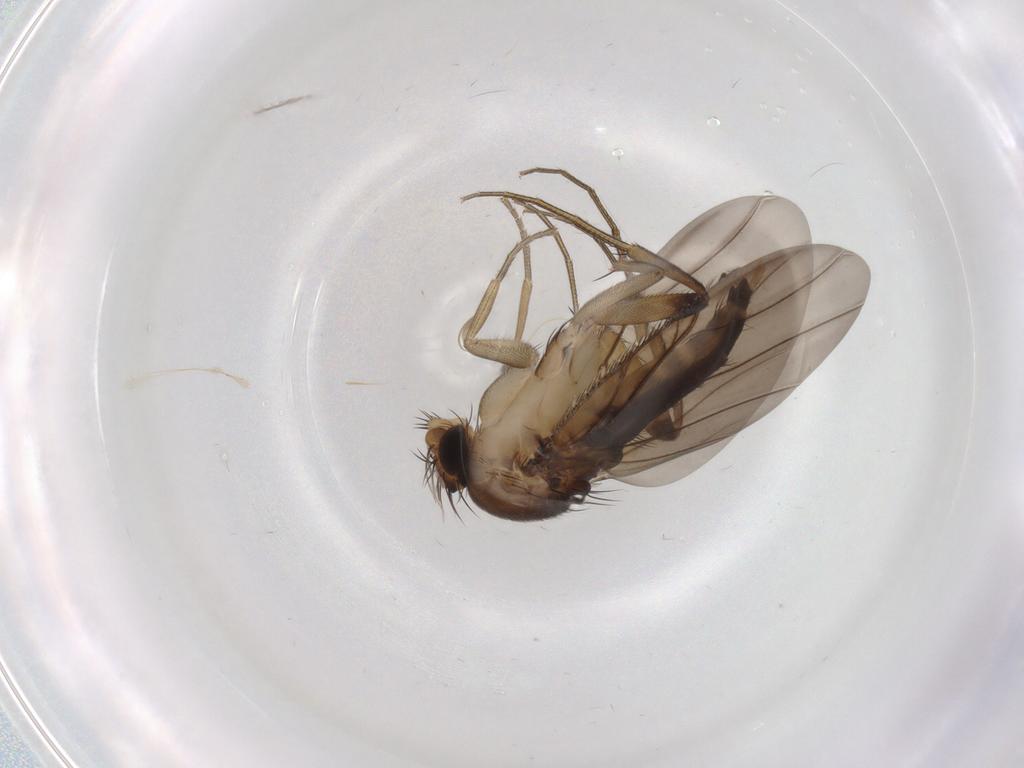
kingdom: Animalia
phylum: Arthropoda
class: Insecta
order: Diptera
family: Phoridae
